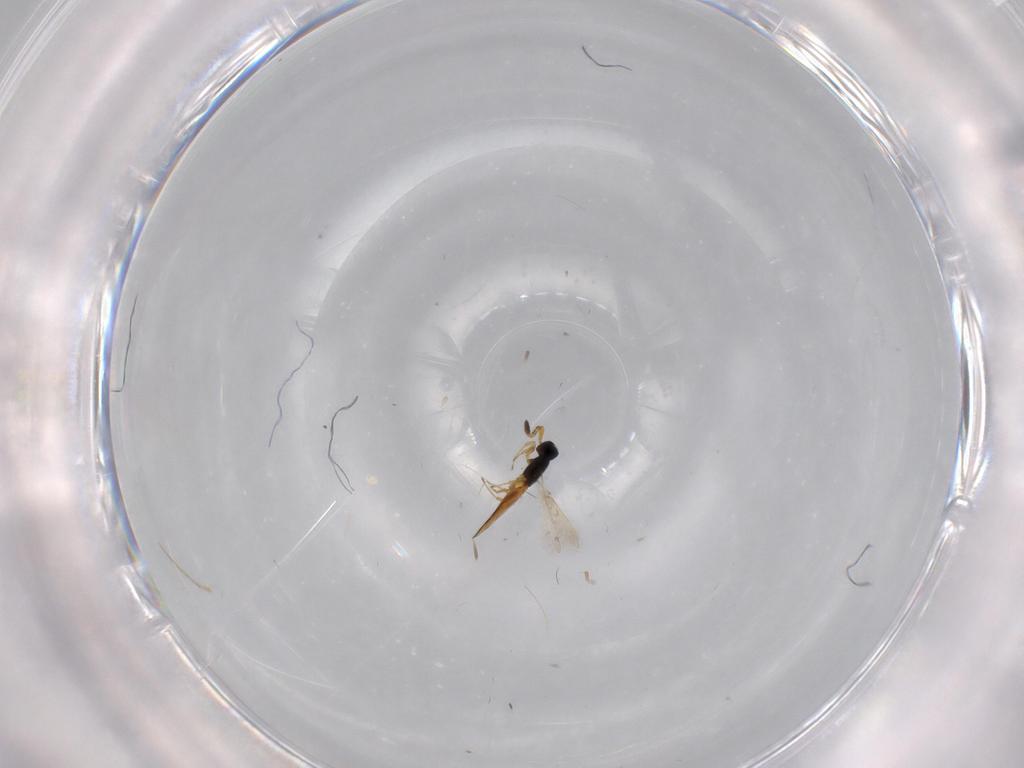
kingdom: Animalia
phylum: Arthropoda
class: Insecta
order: Hymenoptera
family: Scelionidae
